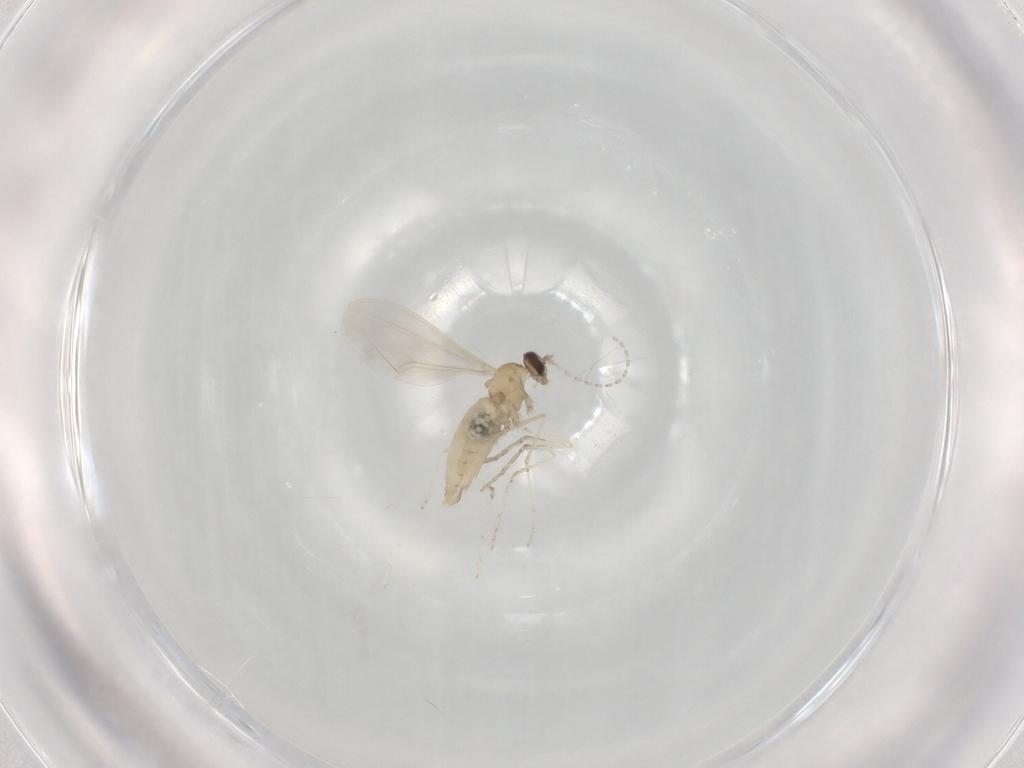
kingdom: Animalia
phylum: Arthropoda
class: Insecta
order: Diptera
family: Cecidomyiidae
